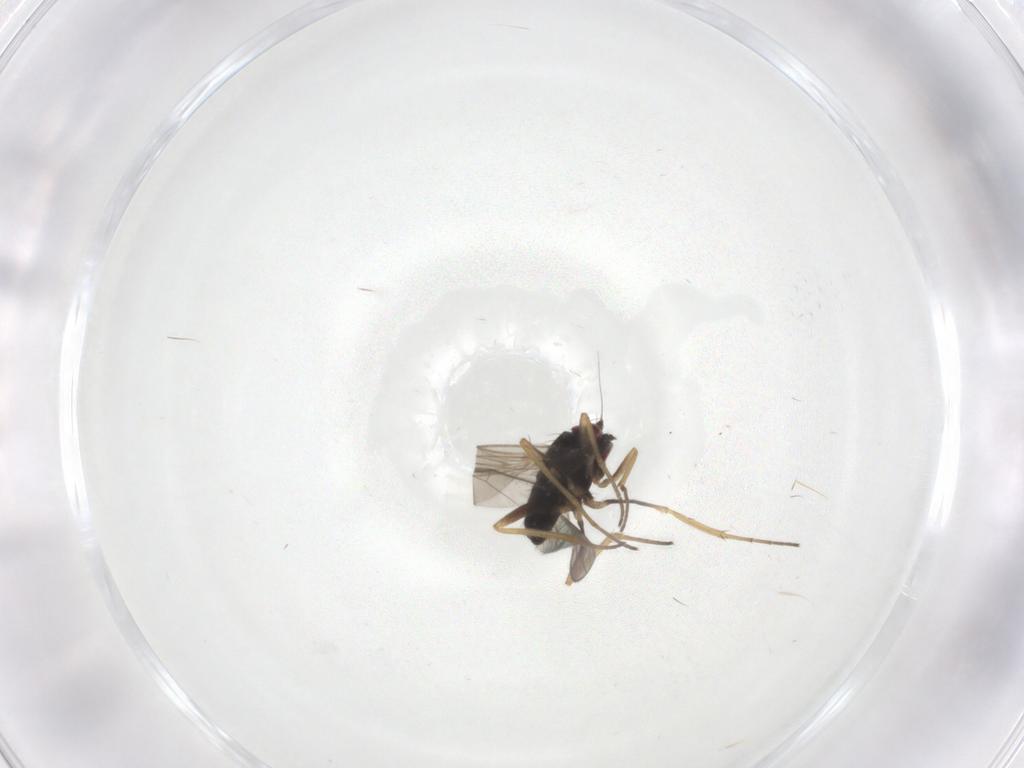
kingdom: Animalia
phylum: Arthropoda
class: Insecta
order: Diptera
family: Dolichopodidae
